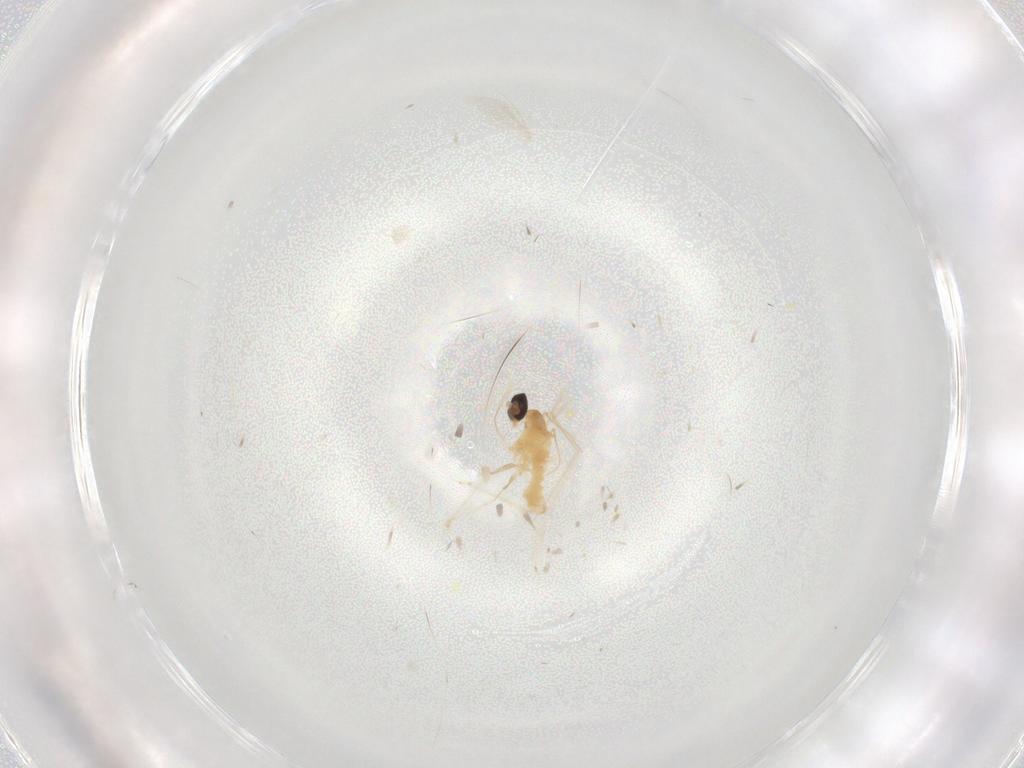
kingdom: Animalia
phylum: Arthropoda
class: Insecta
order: Diptera
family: Cecidomyiidae
